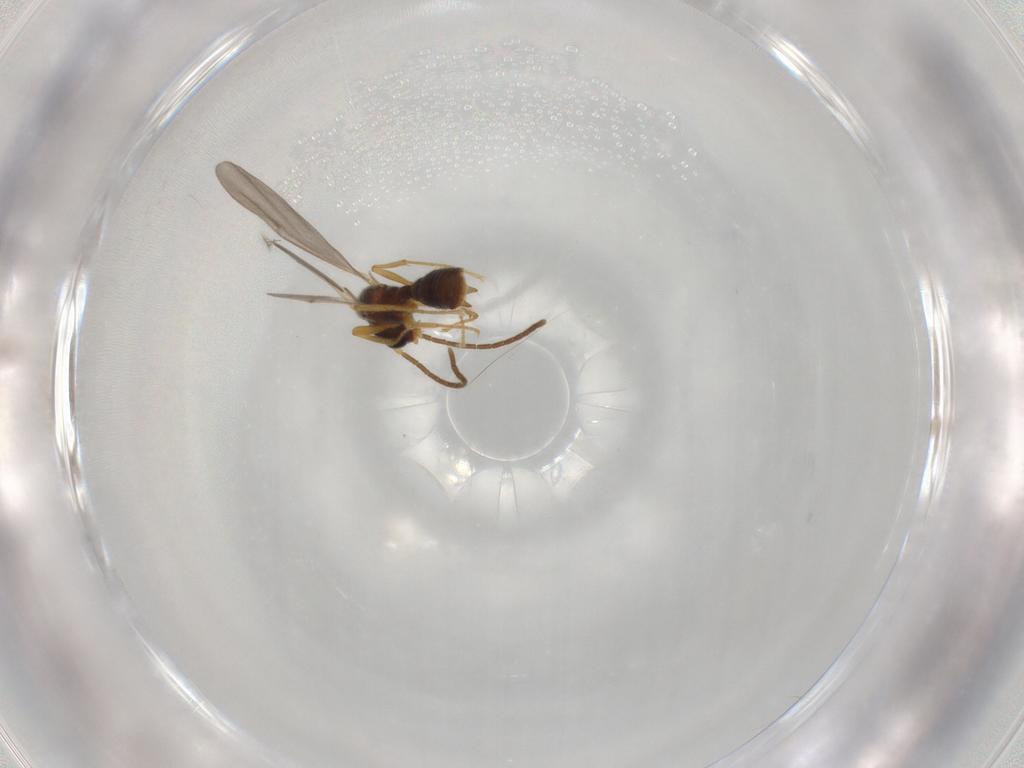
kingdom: Animalia
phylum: Arthropoda
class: Insecta
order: Hymenoptera
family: Formicidae
